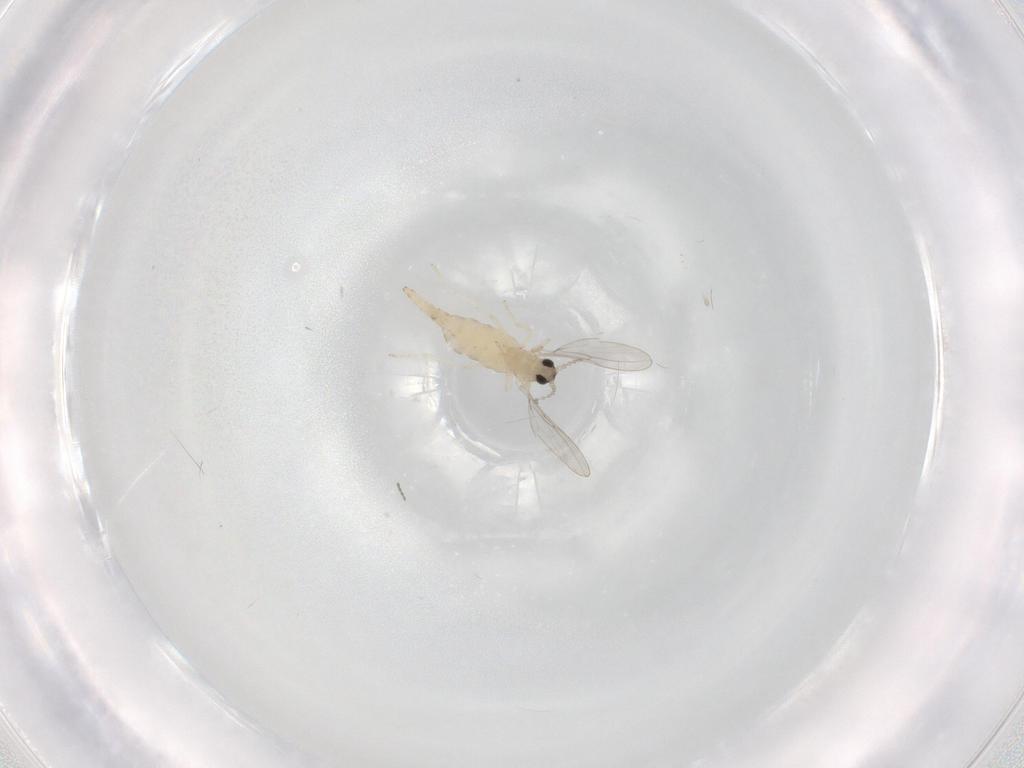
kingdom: Animalia
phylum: Arthropoda
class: Insecta
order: Diptera
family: Cecidomyiidae
